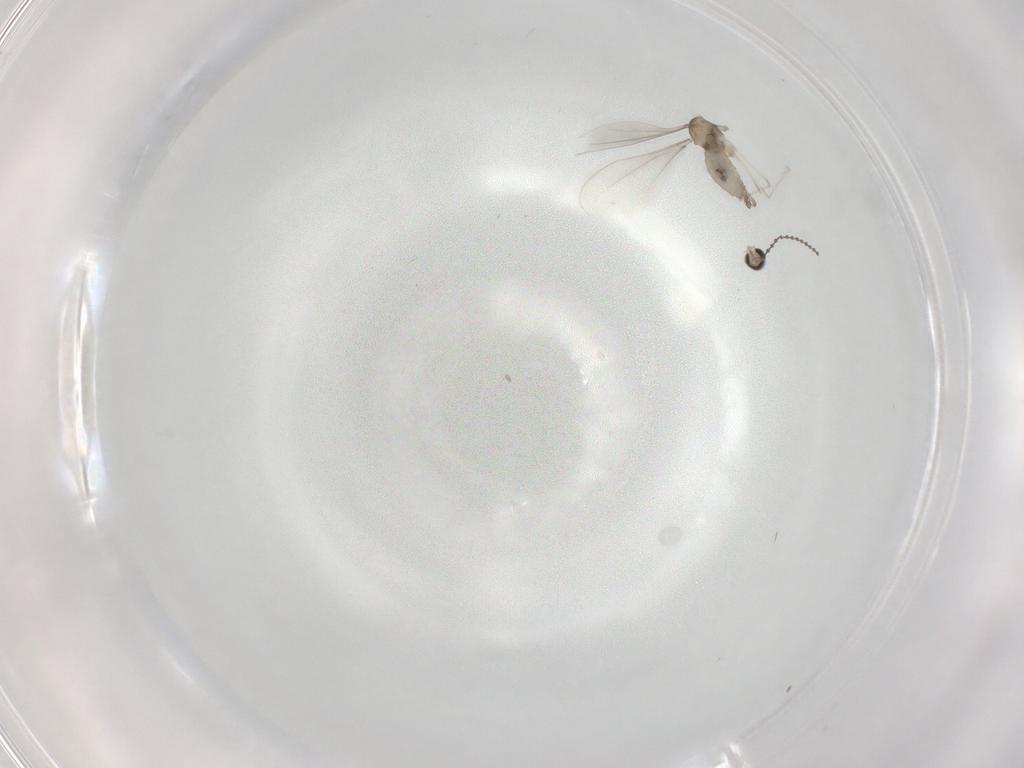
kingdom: Animalia
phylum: Arthropoda
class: Insecta
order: Diptera
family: Cecidomyiidae
